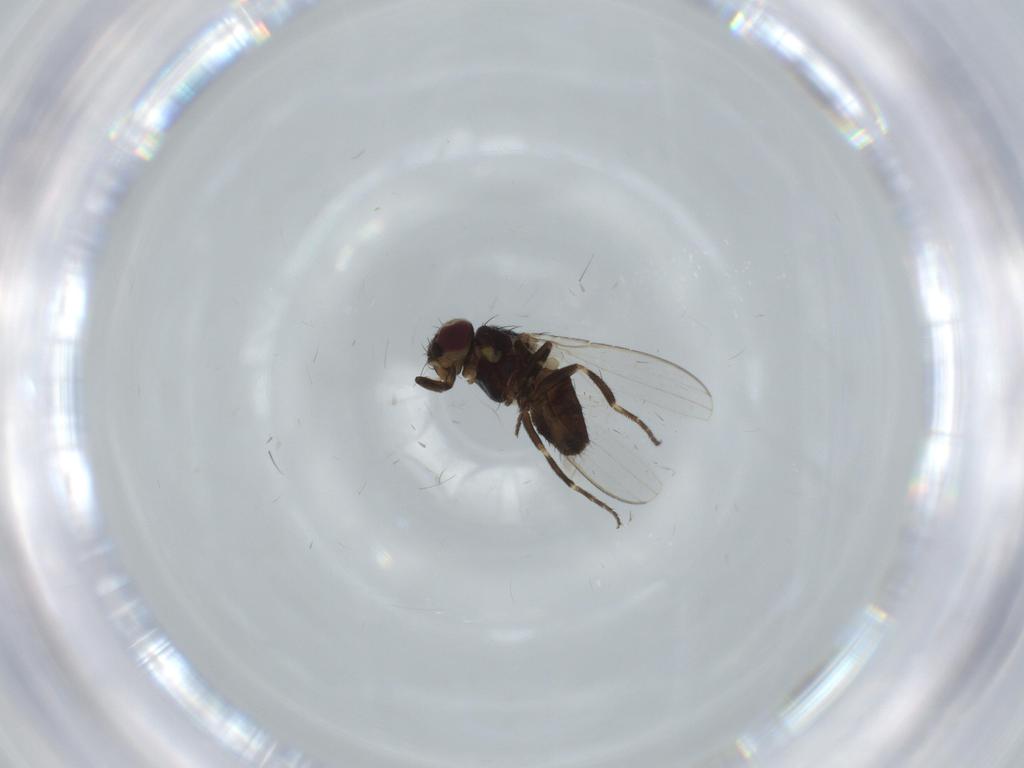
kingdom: Animalia
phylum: Arthropoda
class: Insecta
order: Diptera
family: Milichiidae
